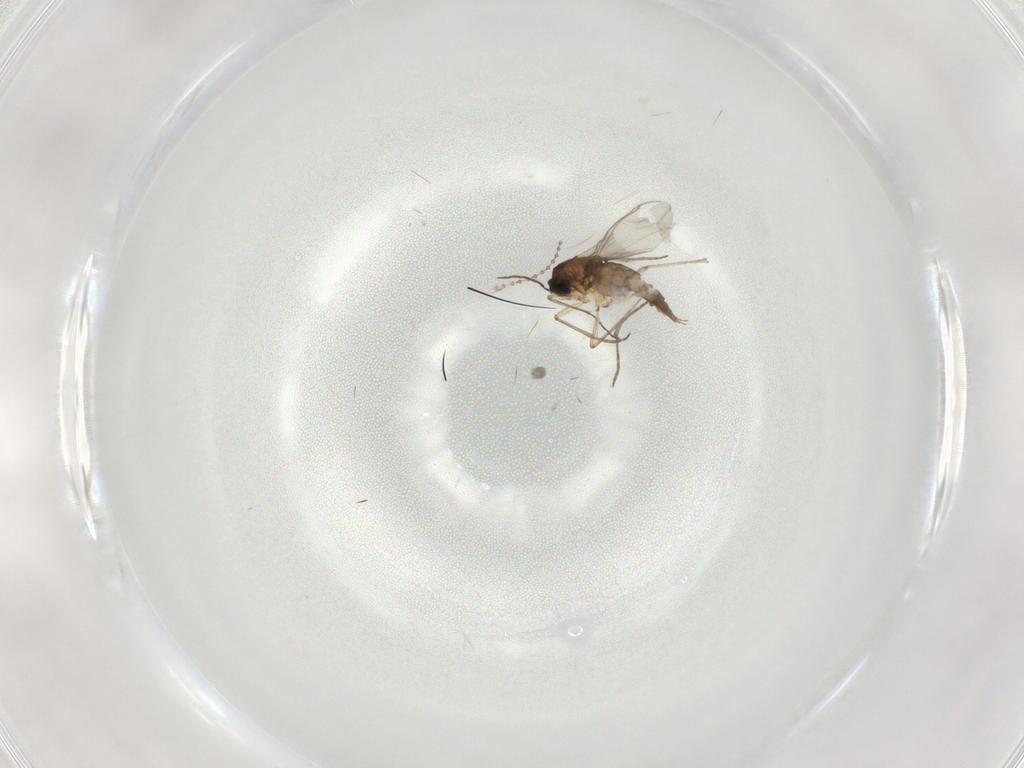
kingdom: Animalia
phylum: Arthropoda
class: Insecta
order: Diptera
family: Sciaridae
